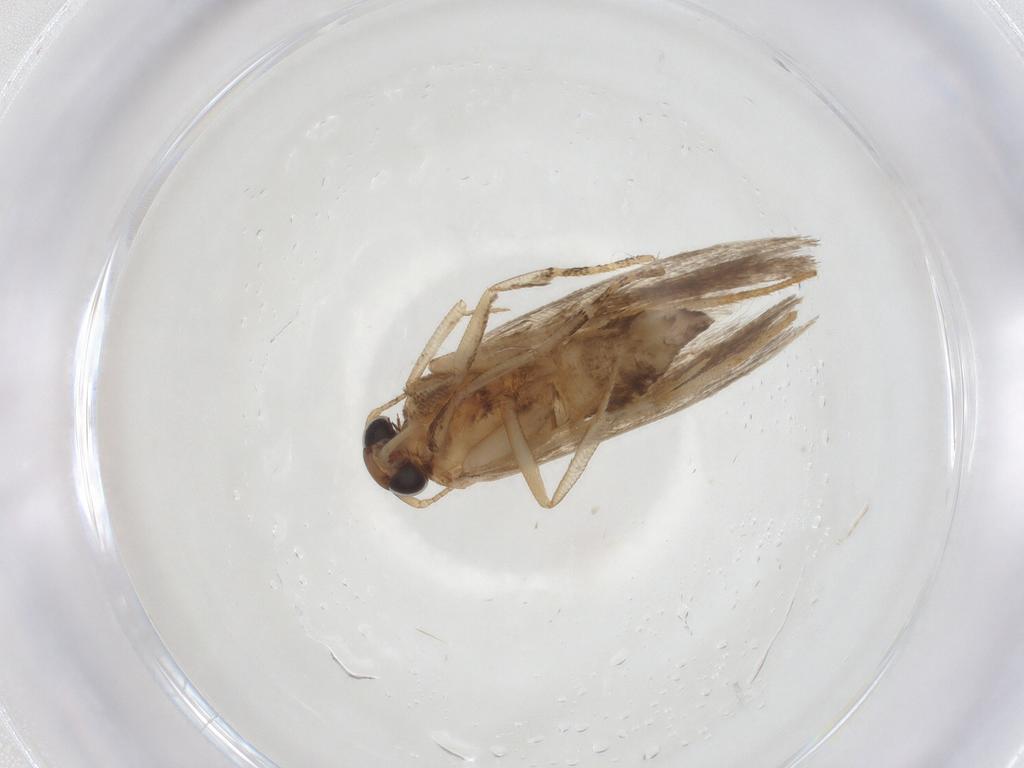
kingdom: Animalia
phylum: Arthropoda
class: Insecta
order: Lepidoptera
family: Gelechiidae
